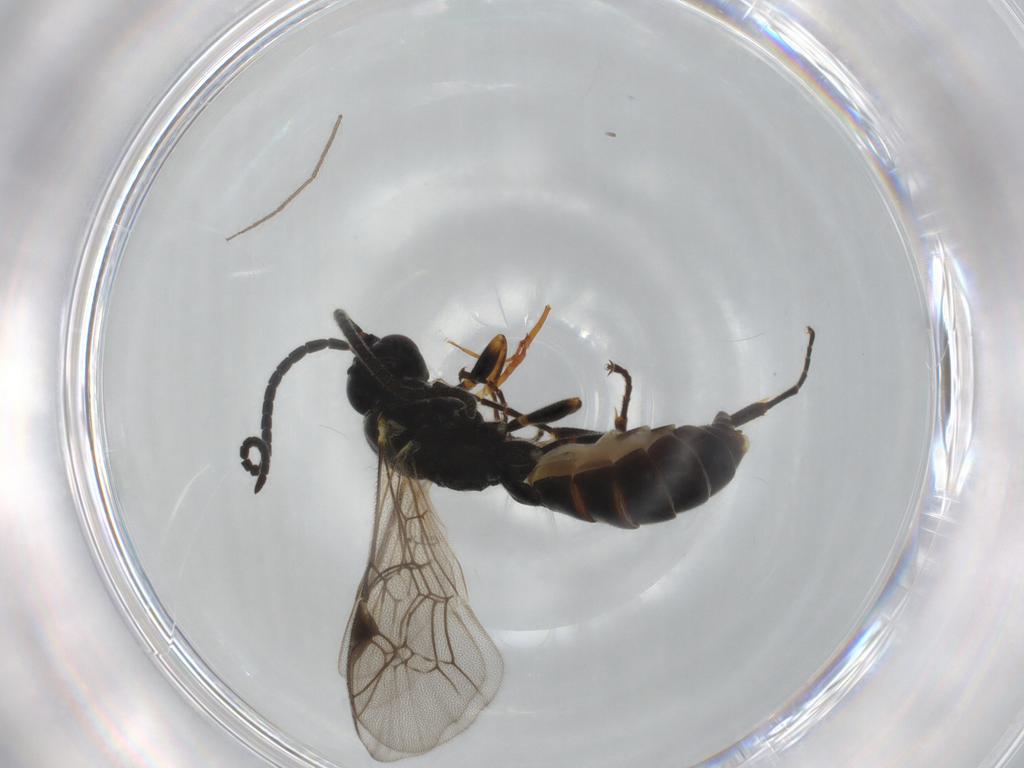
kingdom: Animalia
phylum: Arthropoda
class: Insecta
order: Hymenoptera
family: Ichneumonidae
